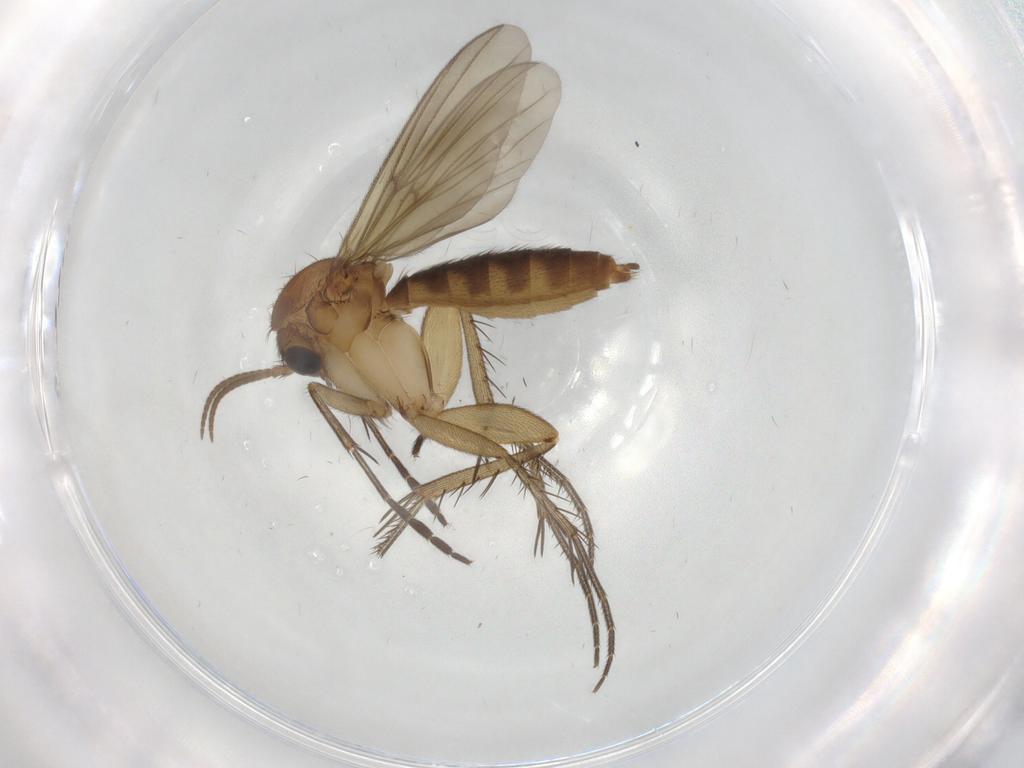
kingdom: Animalia
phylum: Arthropoda
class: Insecta
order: Diptera
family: Mycetophilidae
